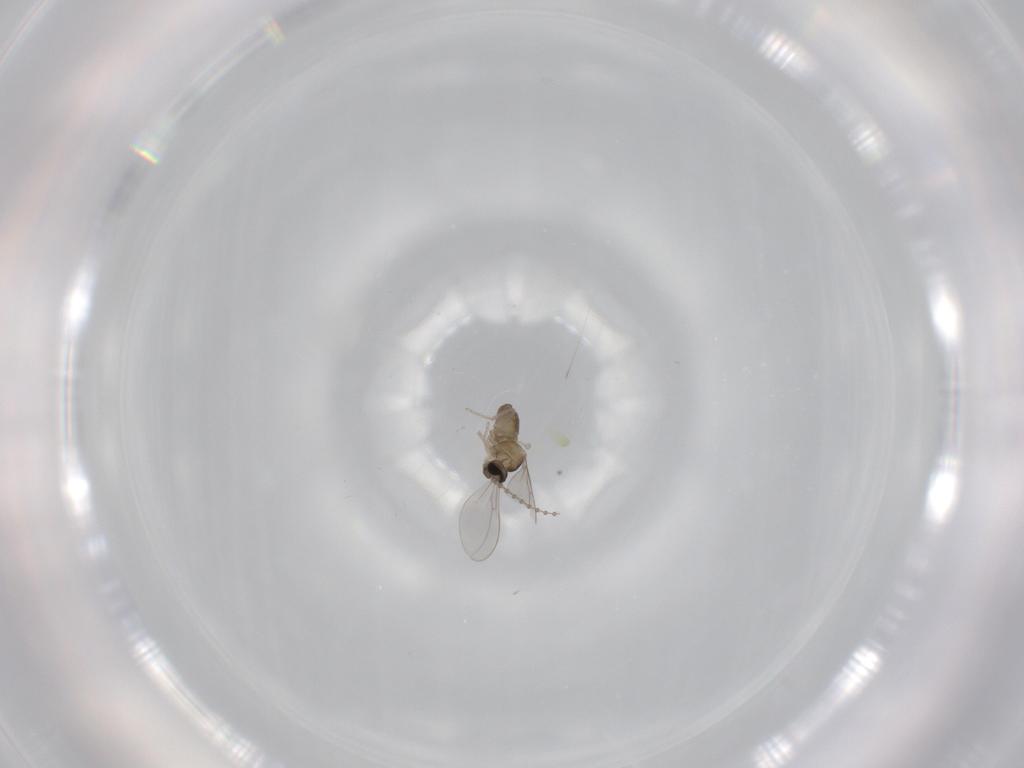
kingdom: Animalia
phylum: Arthropoda
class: Insecta
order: Diptera
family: Cecidomyiidae
